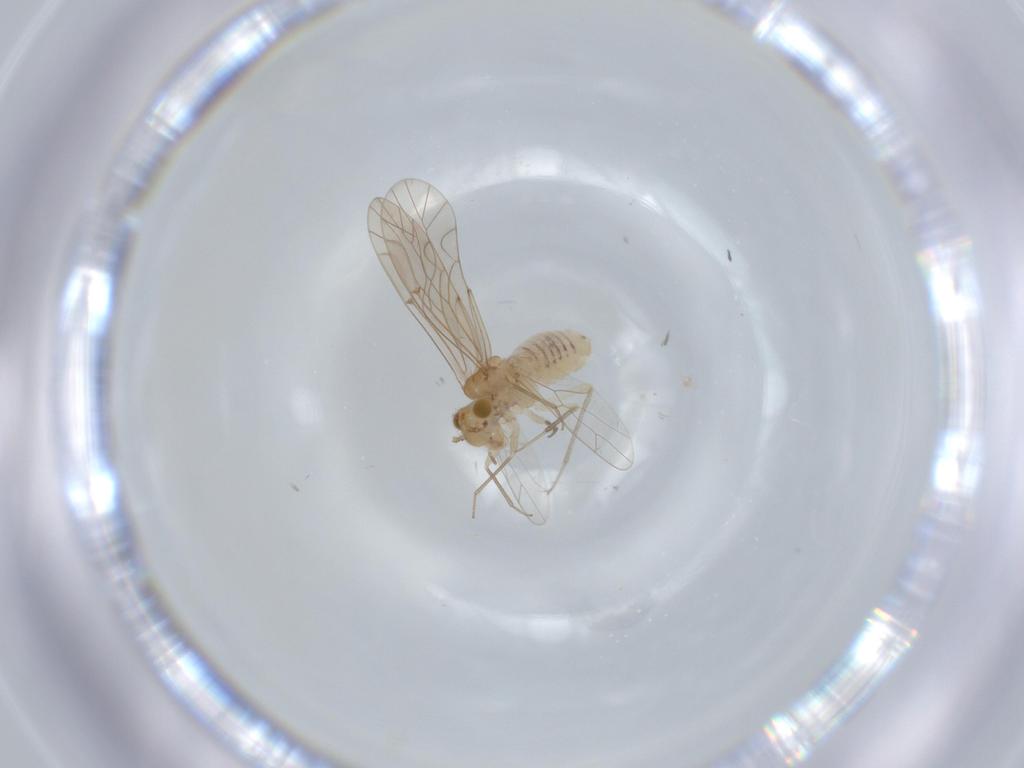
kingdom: Animalia
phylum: Arthropoda
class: Insecta
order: Psocodea
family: Lachesillidae
